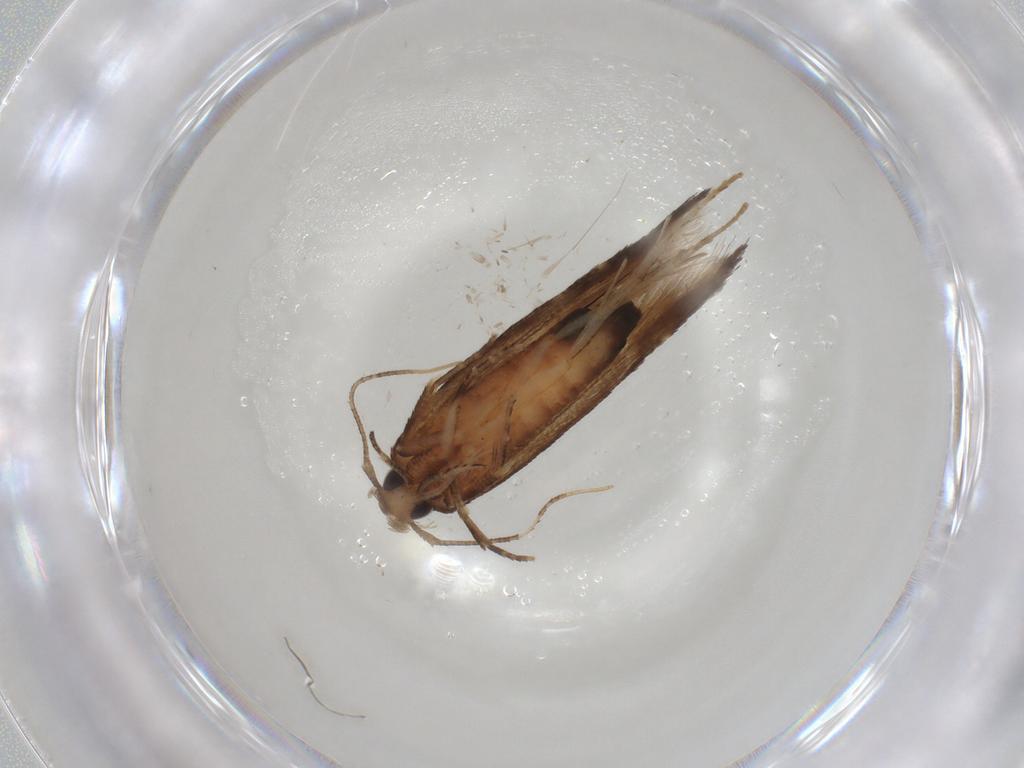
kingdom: Animalia
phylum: Arthropoda
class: Insecta
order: Lepidoptera
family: Cosmopterigidae
